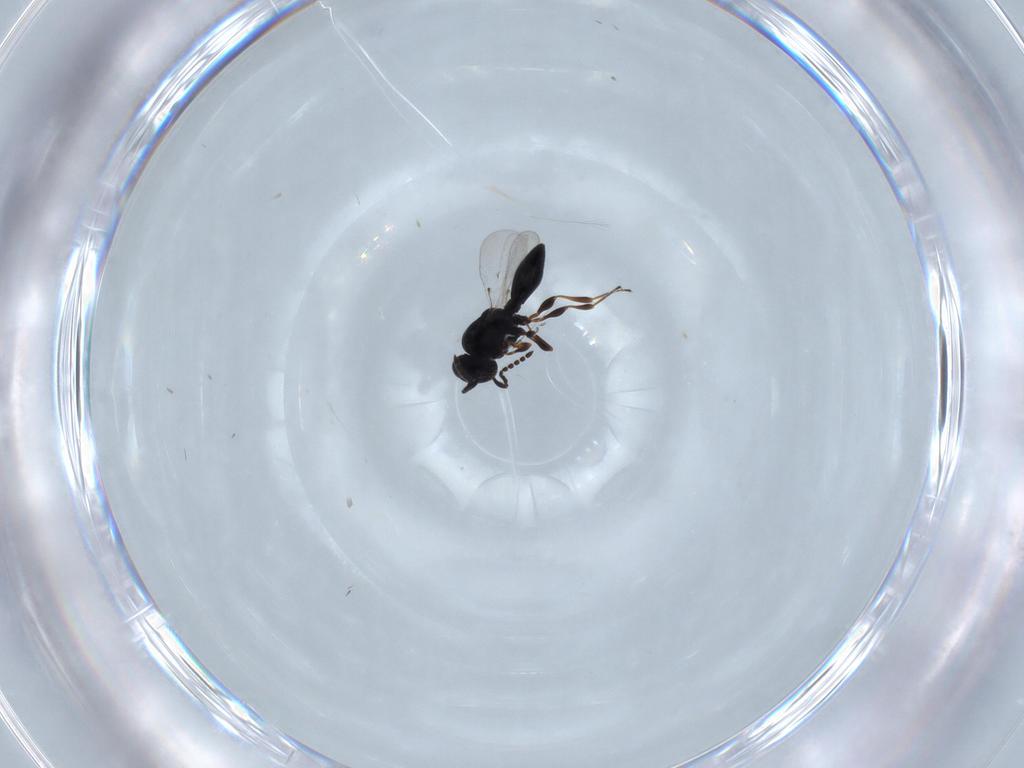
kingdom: Animalia
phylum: Arthropoda
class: Insecta
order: Hymenoptera
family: Platygastridae
